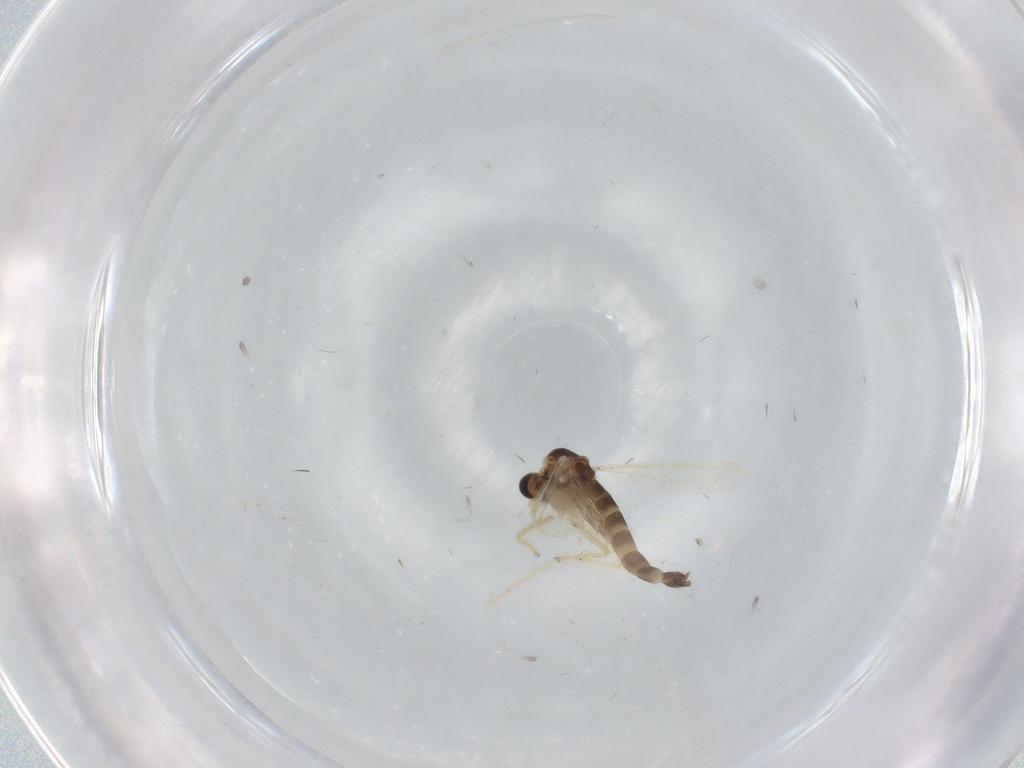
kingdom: Animalia
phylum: Arthropoda
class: Insecta
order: Diptera
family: Chironomidae
